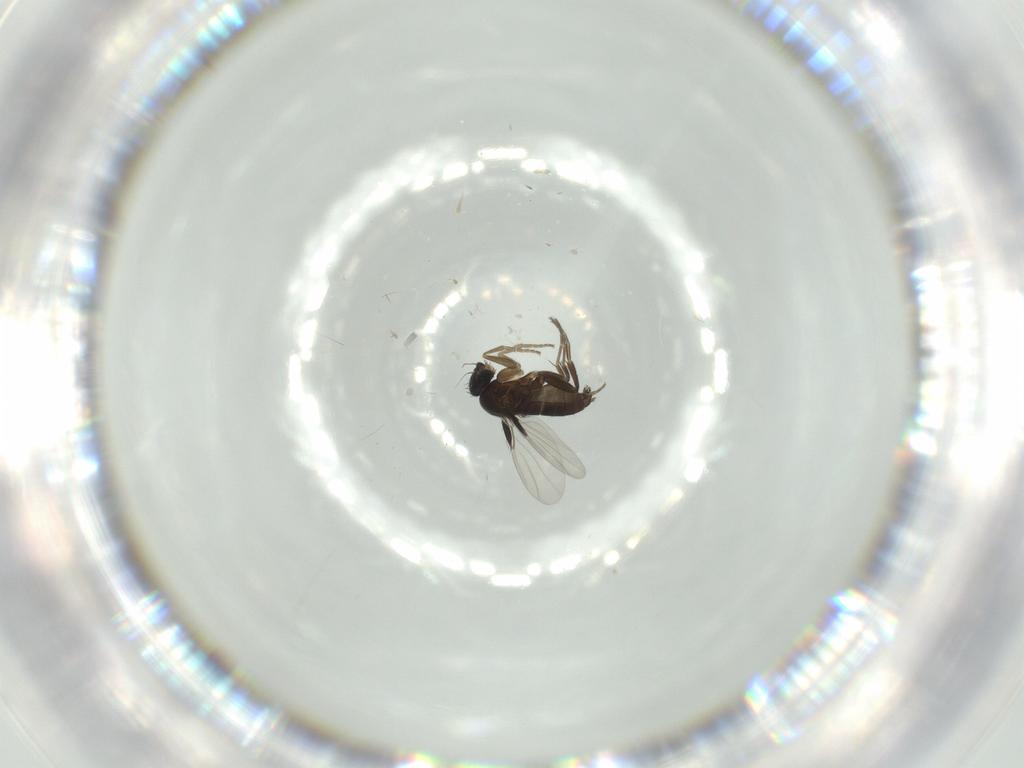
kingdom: Animalia
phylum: Arthropoda
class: Insecta
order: Diptera
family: Phoridae
